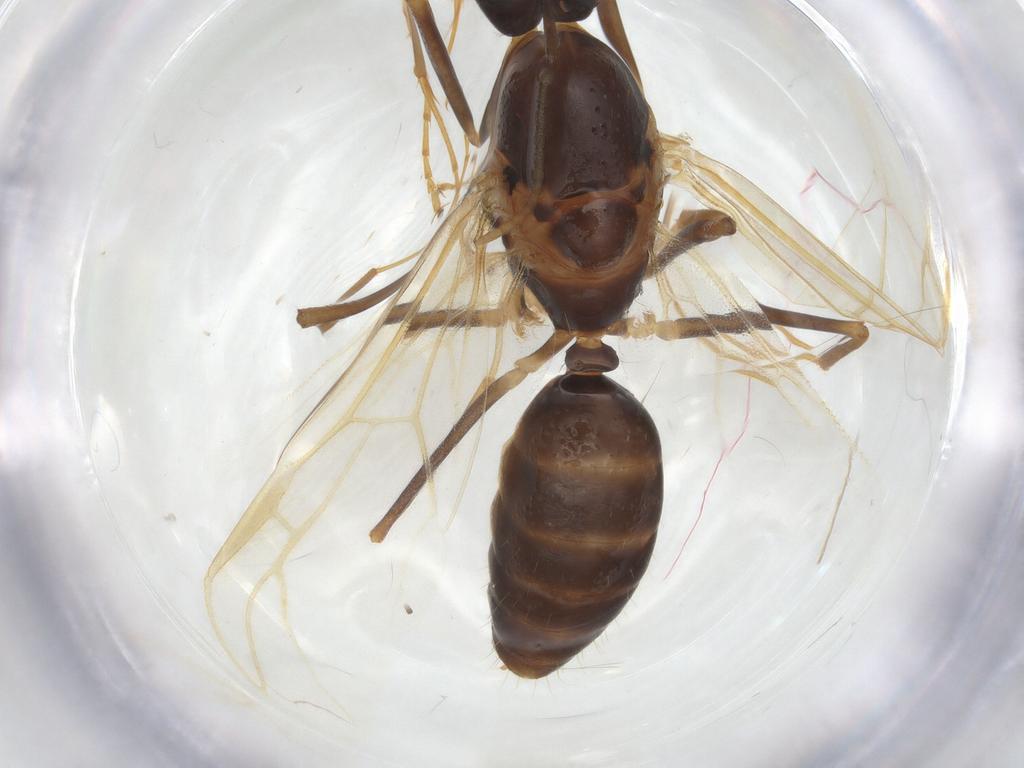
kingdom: Animalia
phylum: Arthropoda
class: Insecta
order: Hymenoptera
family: Formicidae
